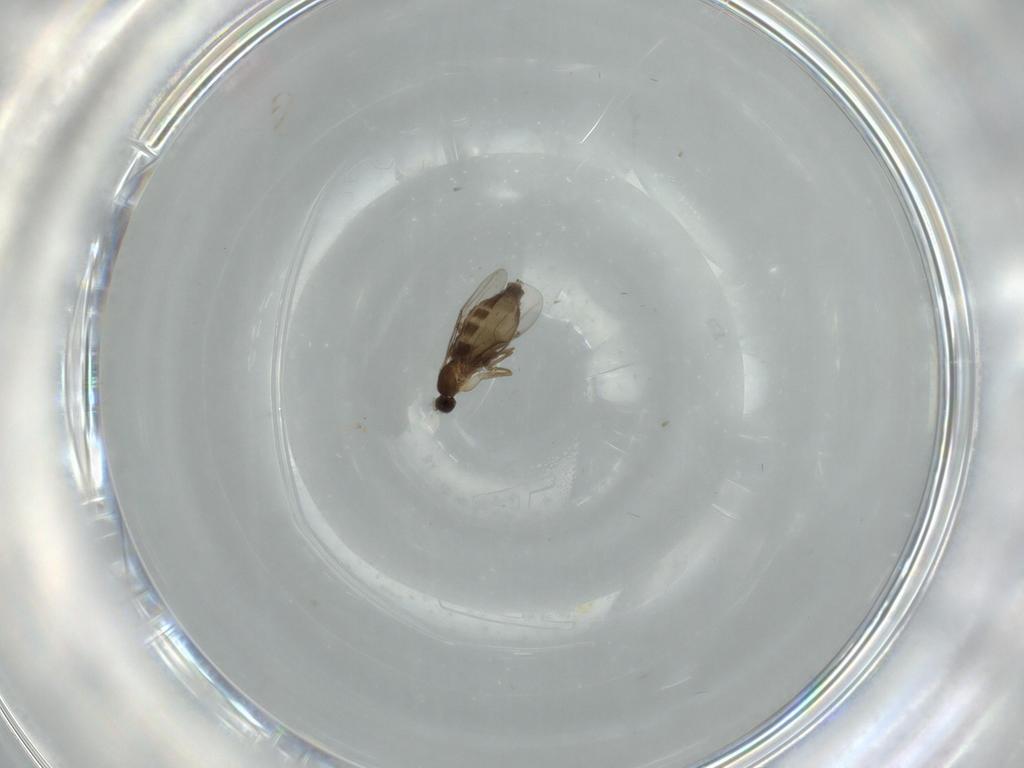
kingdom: Animalia
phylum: Arthropoda
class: Insecta
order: Diptera
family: Phoridae
